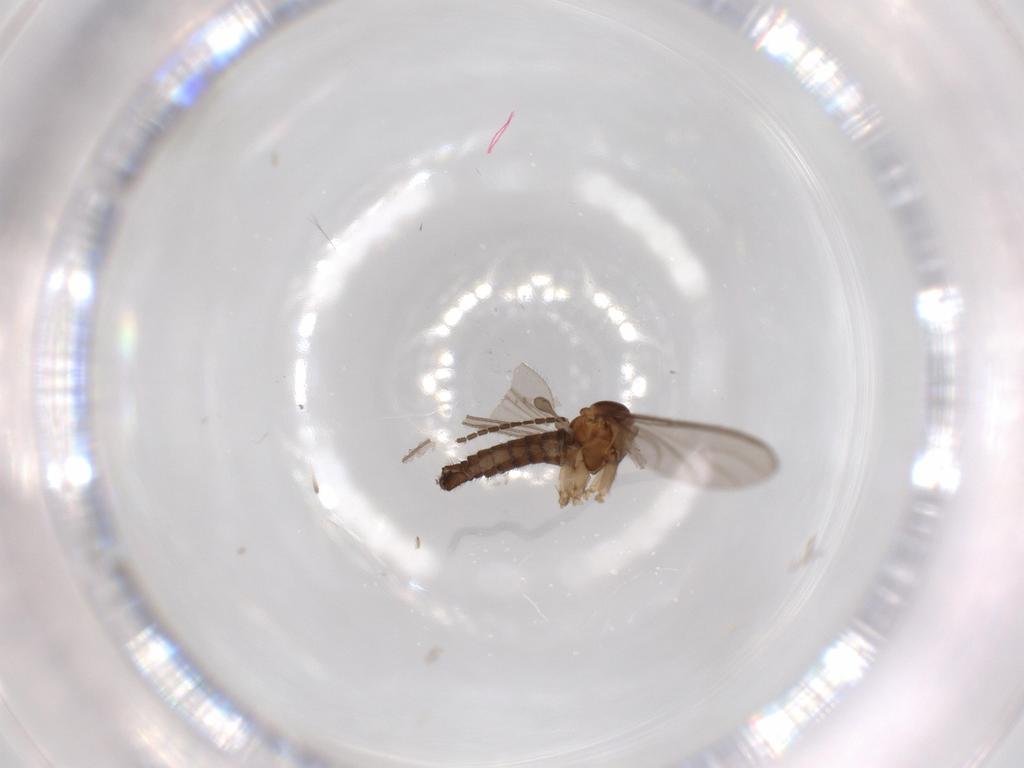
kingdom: Animalia
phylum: Arthropoda
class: Insecta
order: Diptera
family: Sciaridae
